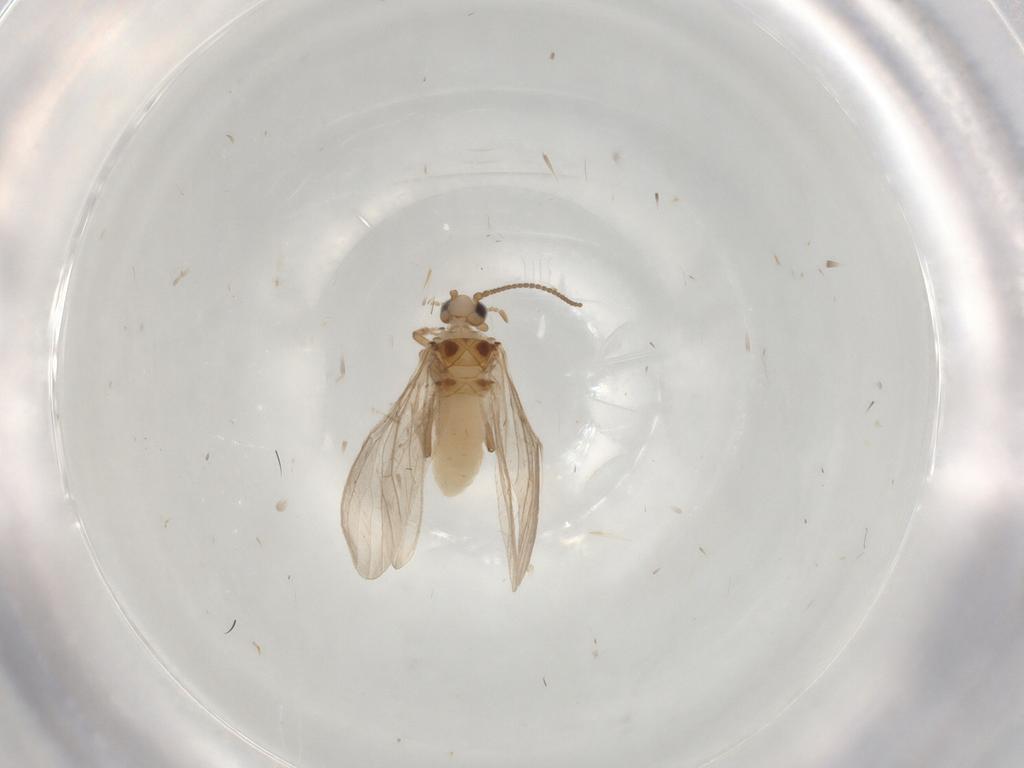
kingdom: Animalia
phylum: Arthropoda
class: Insecta
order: Neuroptera
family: Coniopterygidae
